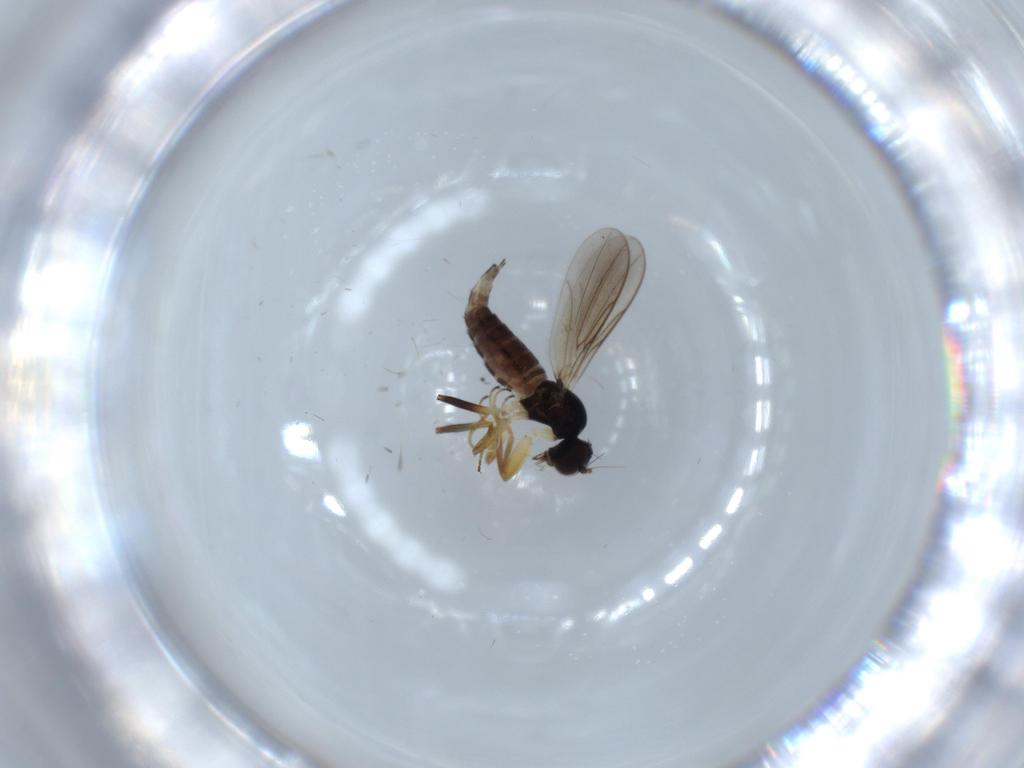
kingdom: Animalia
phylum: Arthropoda
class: Insecta
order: Diptera
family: Hybotidae
